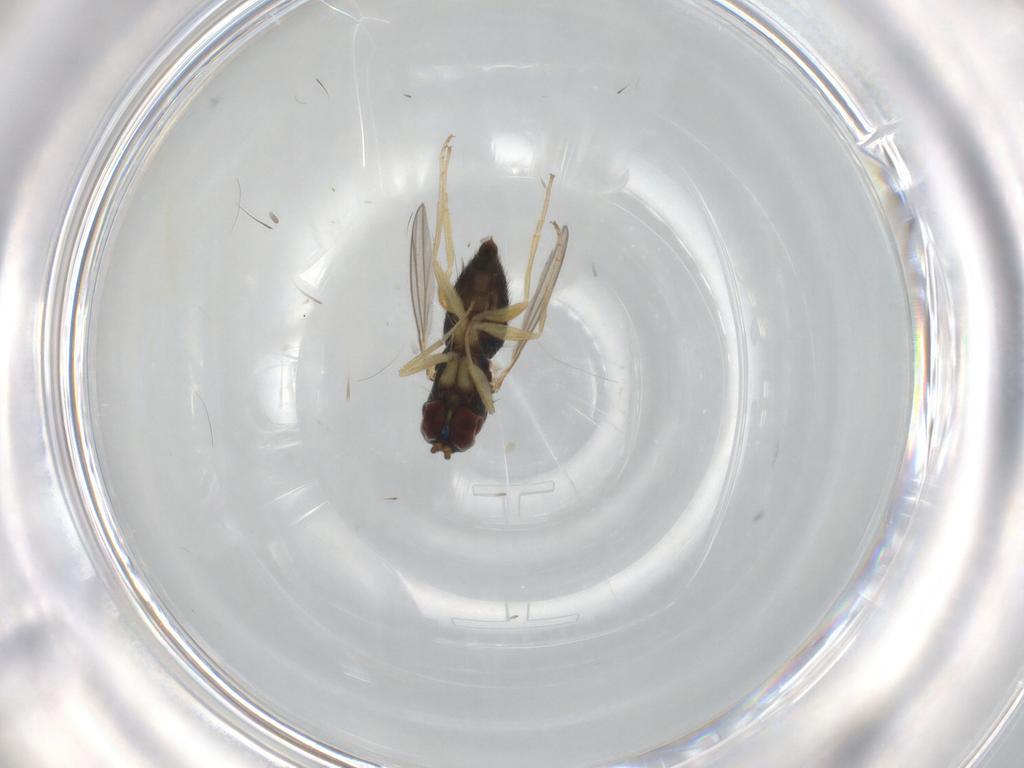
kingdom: Animalia
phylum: Arthropoda
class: Insecta
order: Diptera
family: Dolichopodidae
